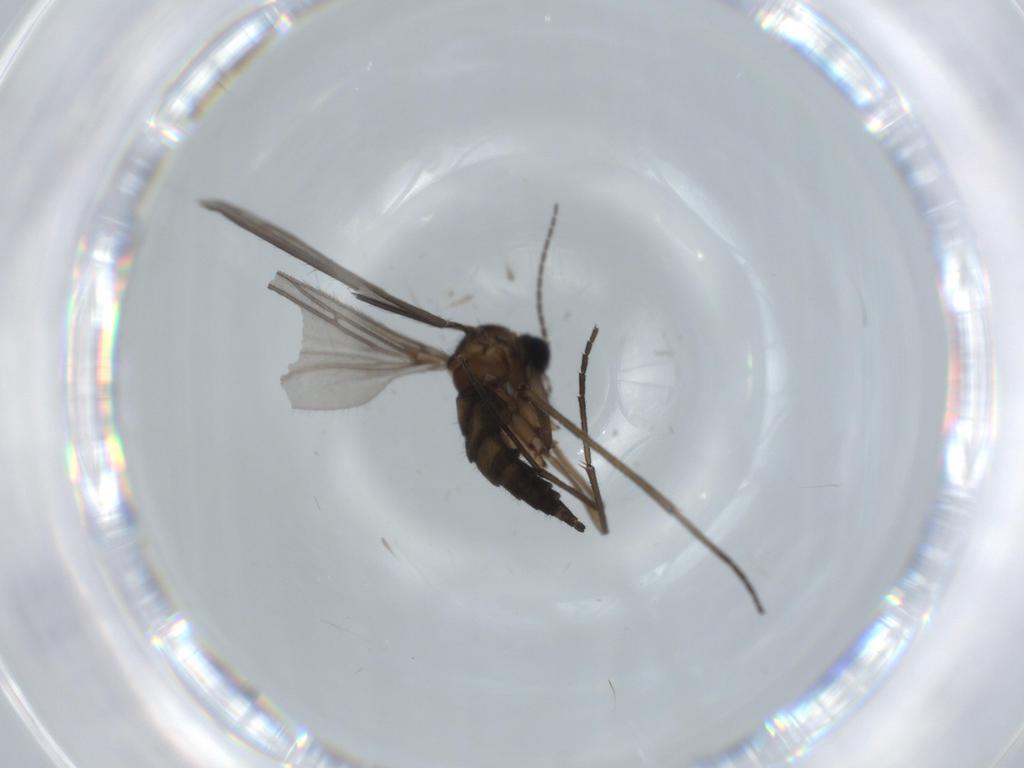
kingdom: Animalia
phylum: Arthropoda
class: Insecta
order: Diptera
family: Sciaridae
